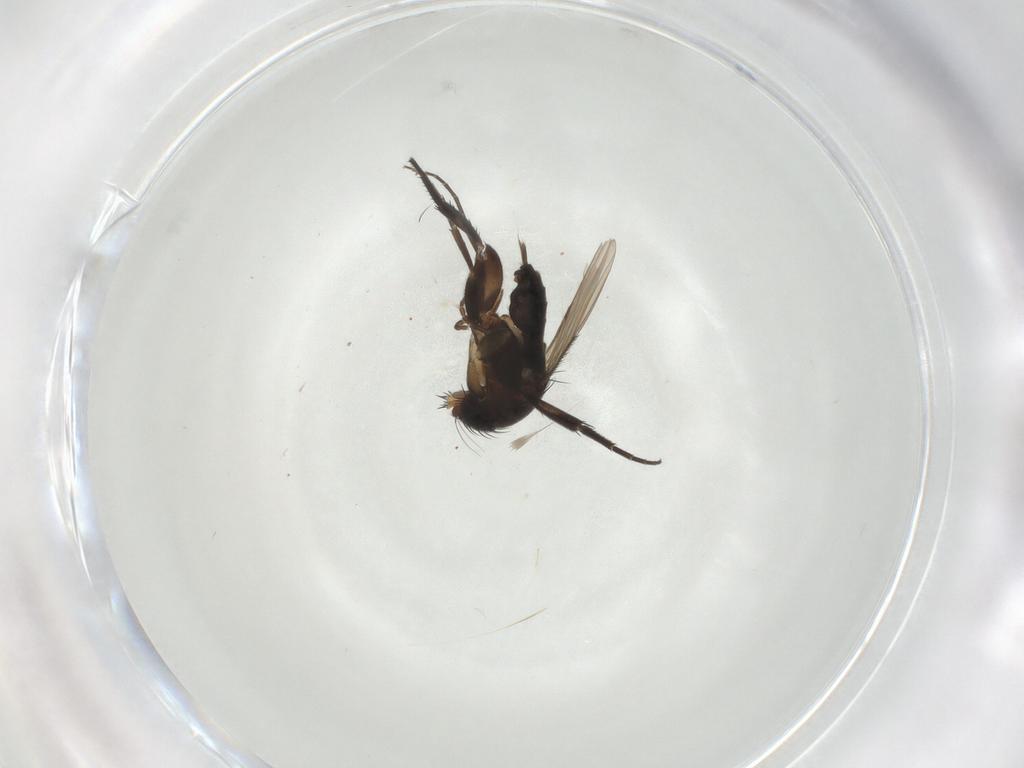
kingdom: Animalia
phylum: Arthropoda
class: Insecta
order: Diptera
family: Phoridae
